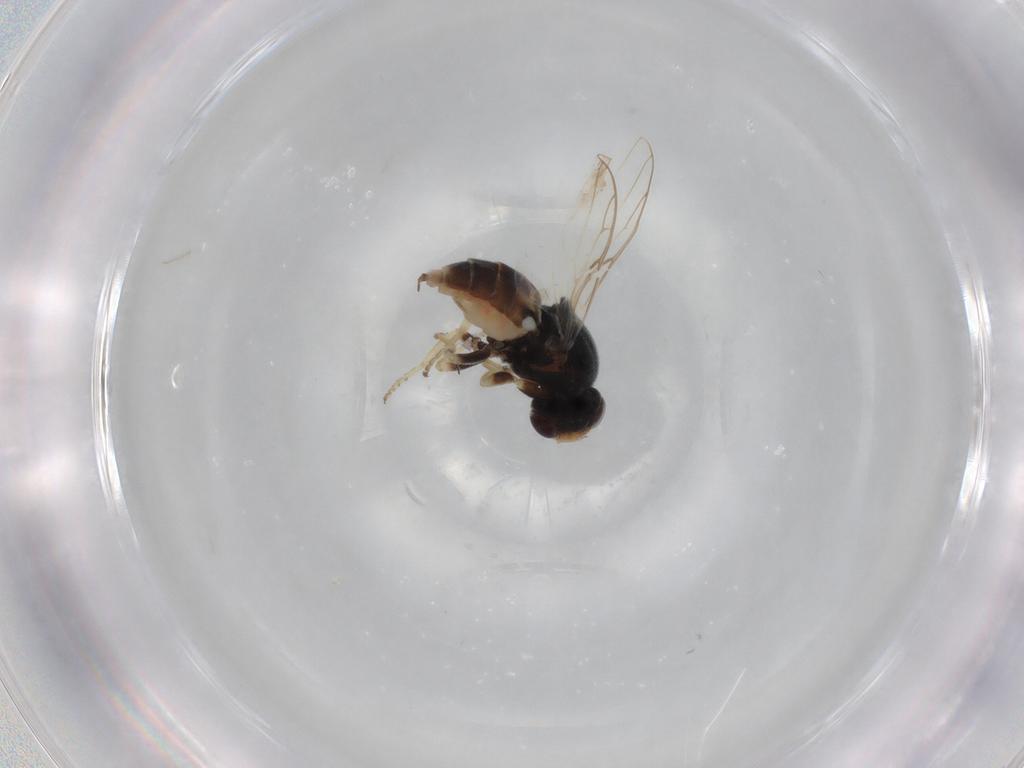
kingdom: Animalia
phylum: Arthropoda
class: Insecta
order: Diptera
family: Chloropidae
